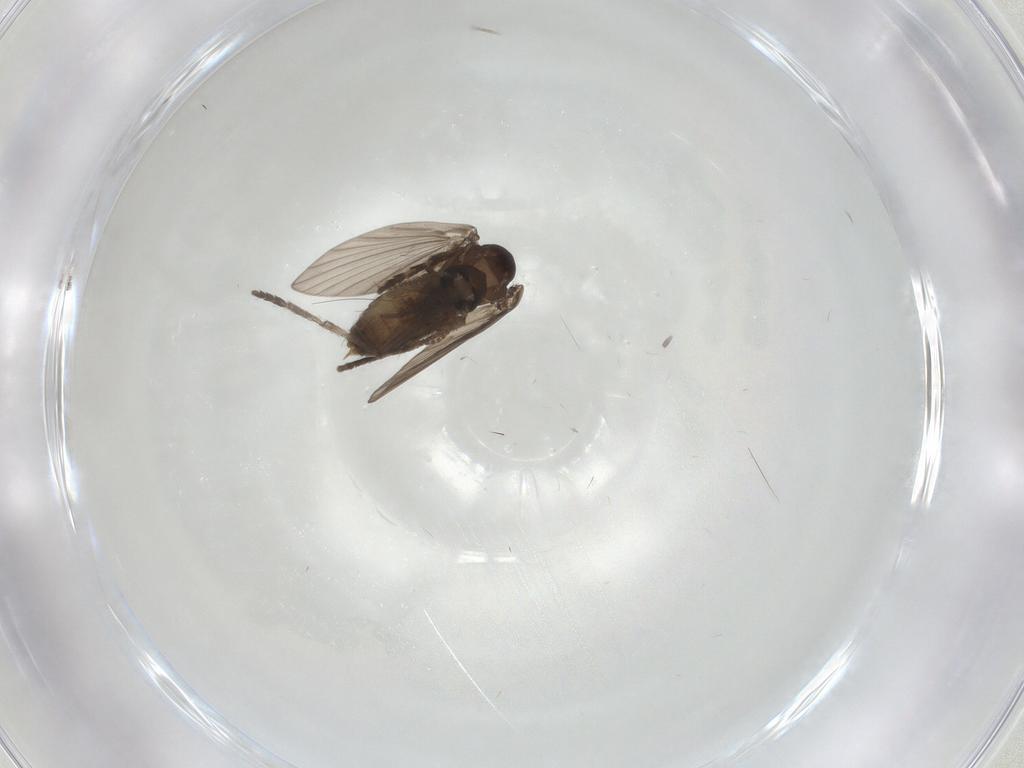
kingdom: Animalia
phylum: Arthropoda
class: Insecta
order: Diptera
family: Psychodidae
